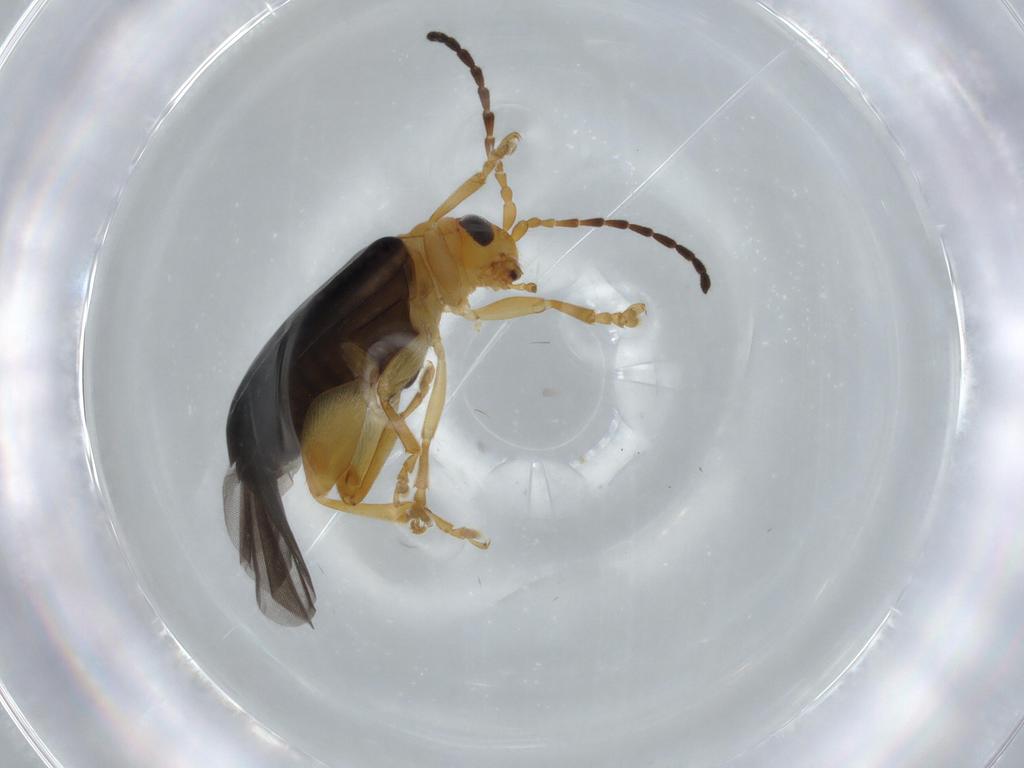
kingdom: Animalia
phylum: Arthropoda
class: Insecta
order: Coleoptera
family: Chrysomelidae
